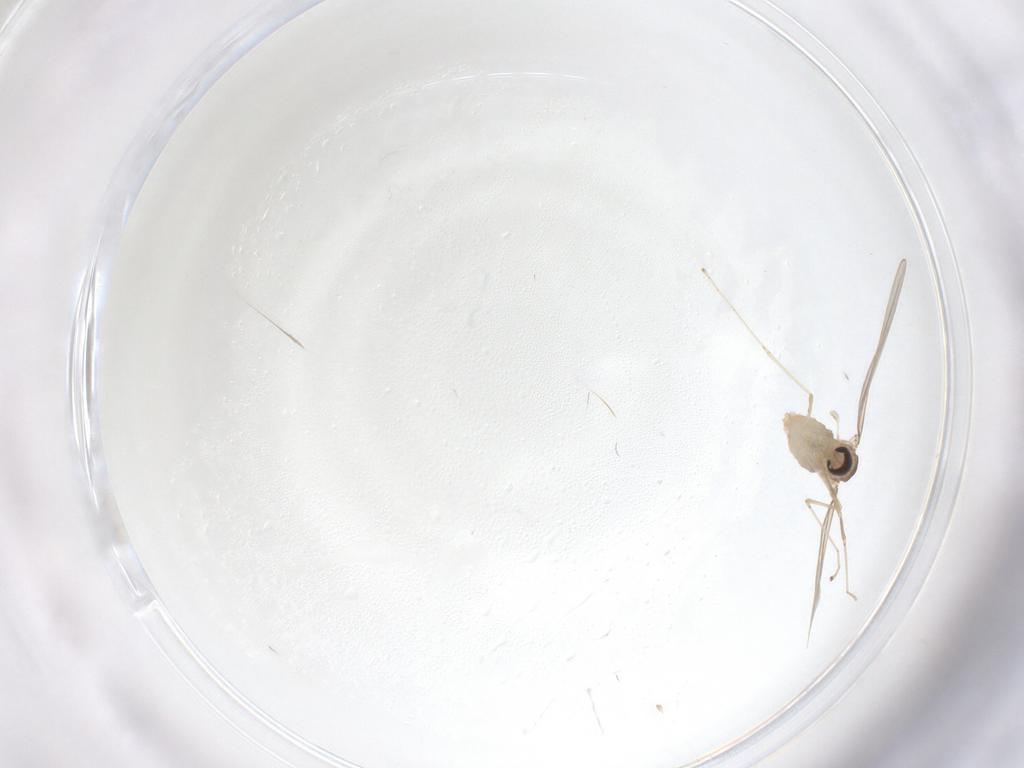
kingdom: Animalia
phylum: Arthropoda
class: Insecta
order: Diptera
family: Cecidomyiidae
